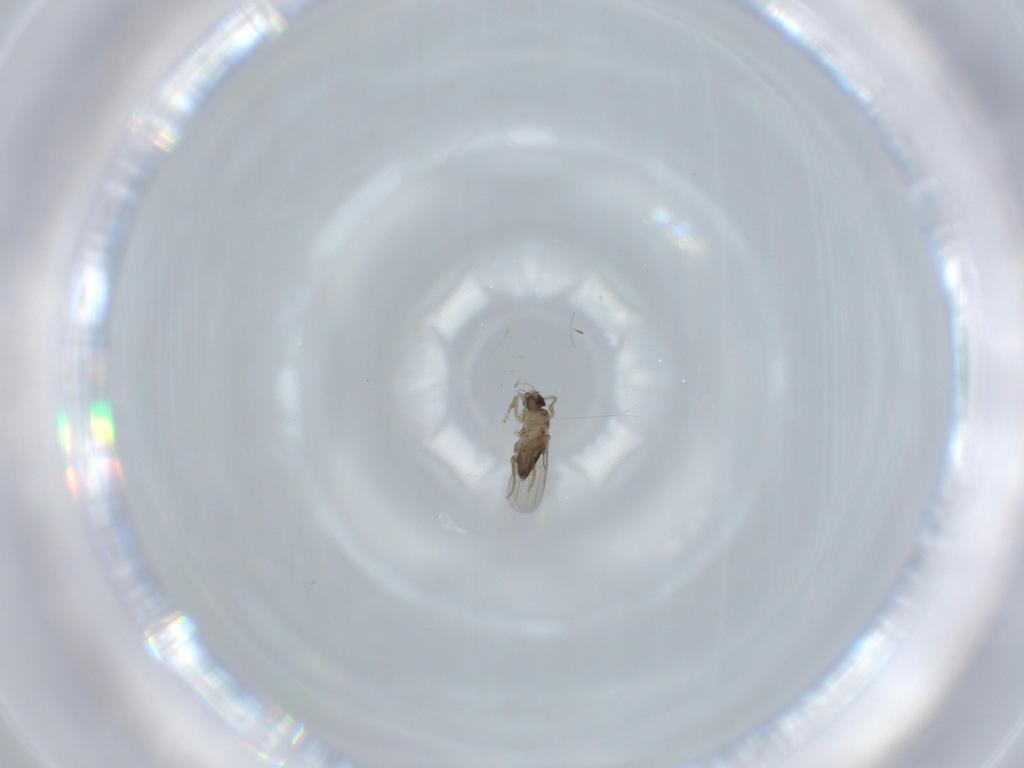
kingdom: Animalia
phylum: Arthropoda
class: Insecta
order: Diptera
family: Phoridae
